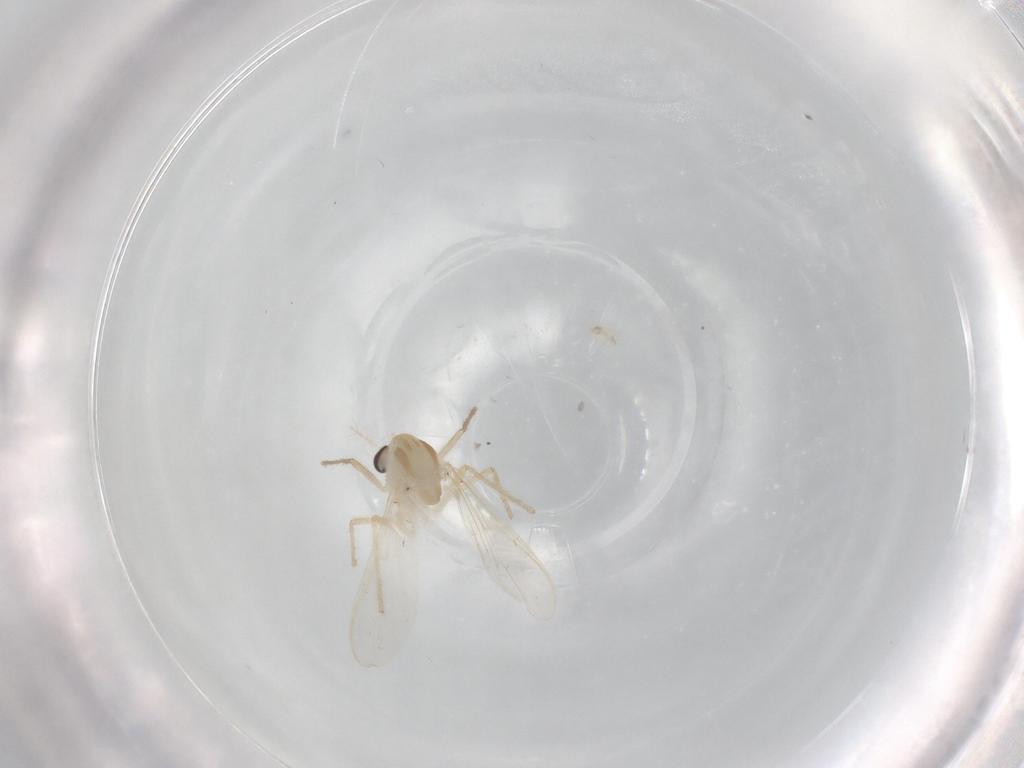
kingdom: Animalia
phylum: Arthropoda
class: Insecta
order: Diptera
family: Chironomidae
